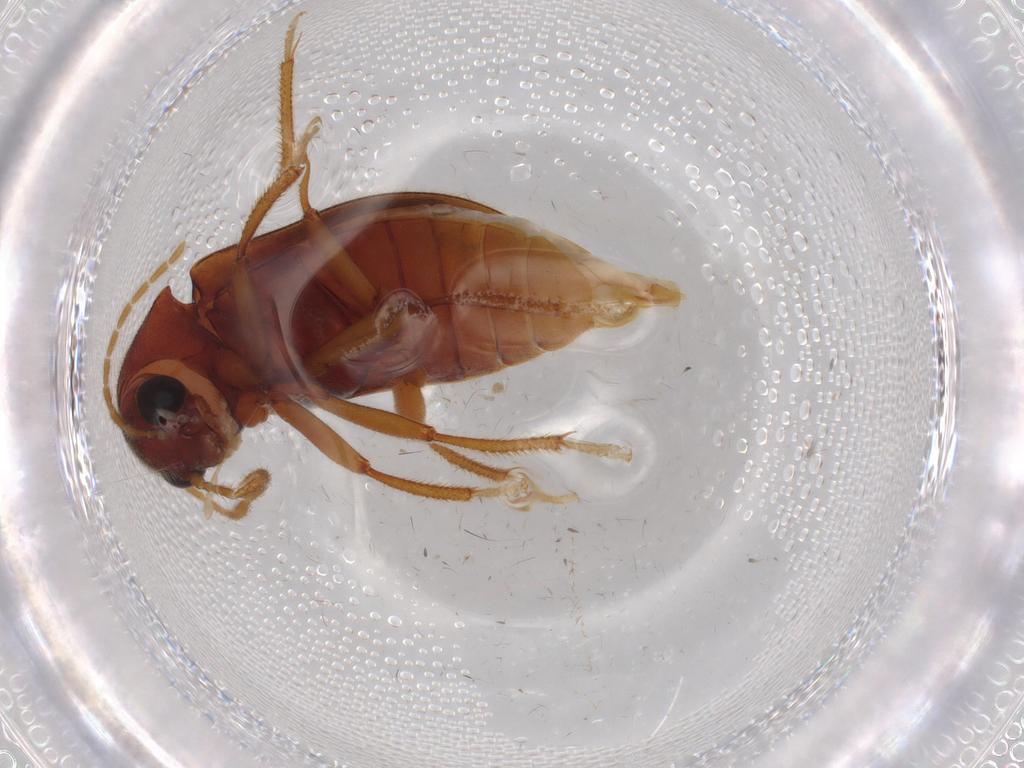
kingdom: Animalia
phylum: Arthropoda
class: Insecta
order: Coleoptera
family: Ptilodactylidae
